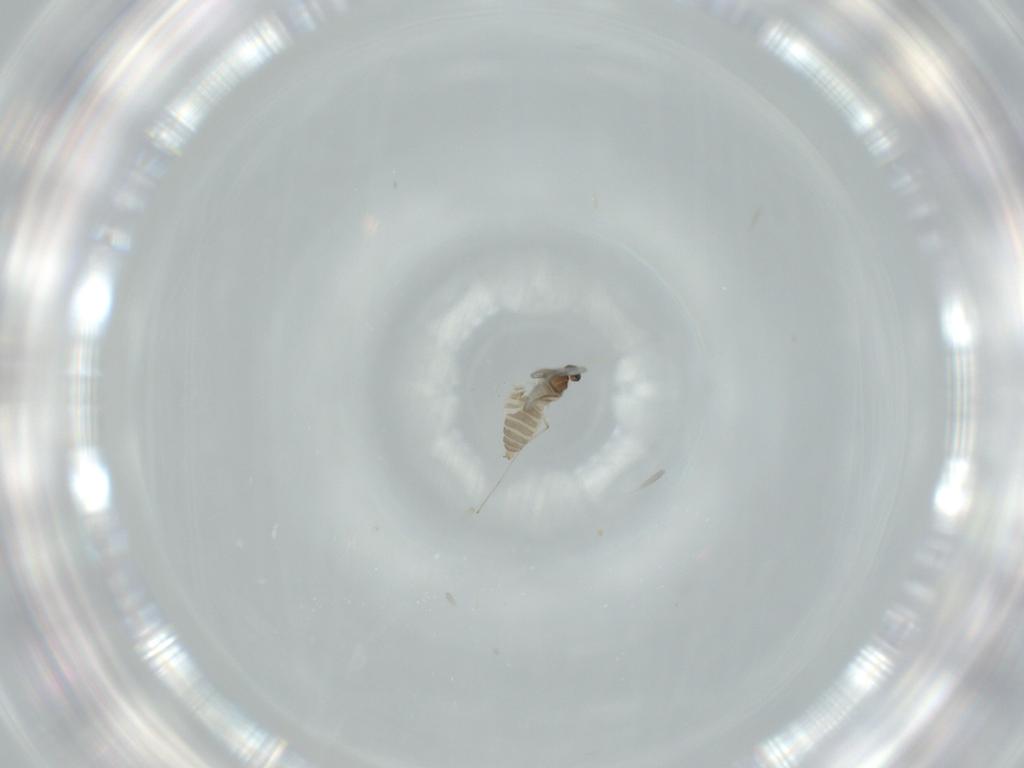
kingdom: Animalia
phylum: Arthropoda
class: Insecta
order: Diptera
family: Cecidomyiidae
